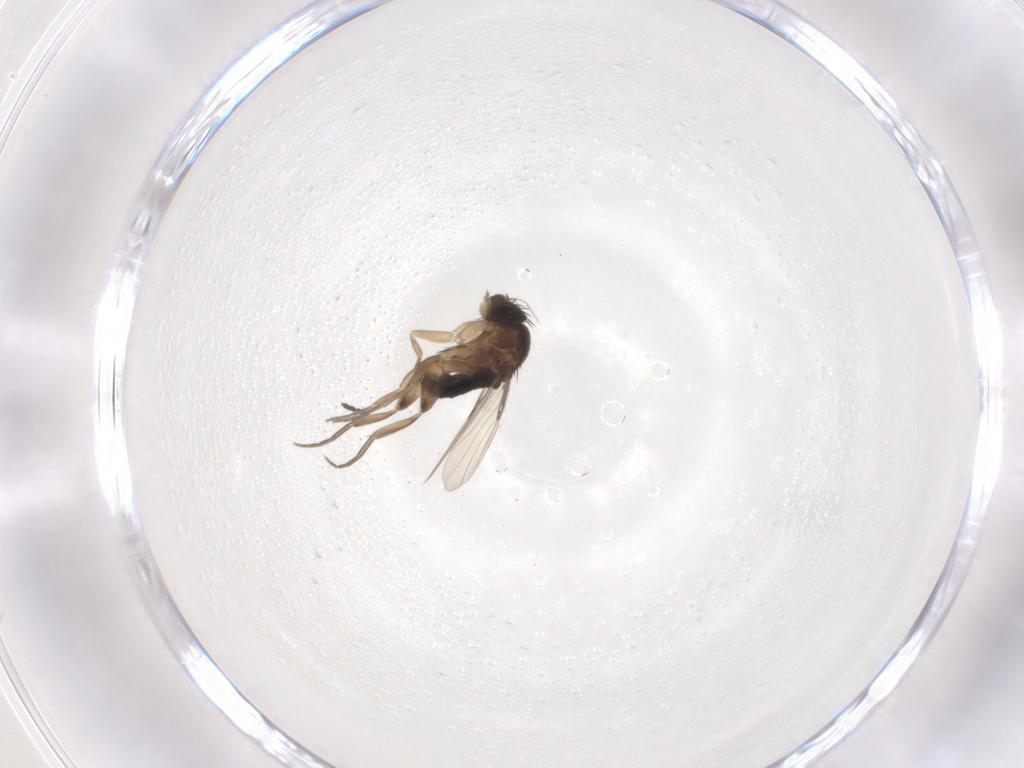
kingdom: Animalia
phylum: Arthropoda
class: Insecta
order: Diptera
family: Phoridae
